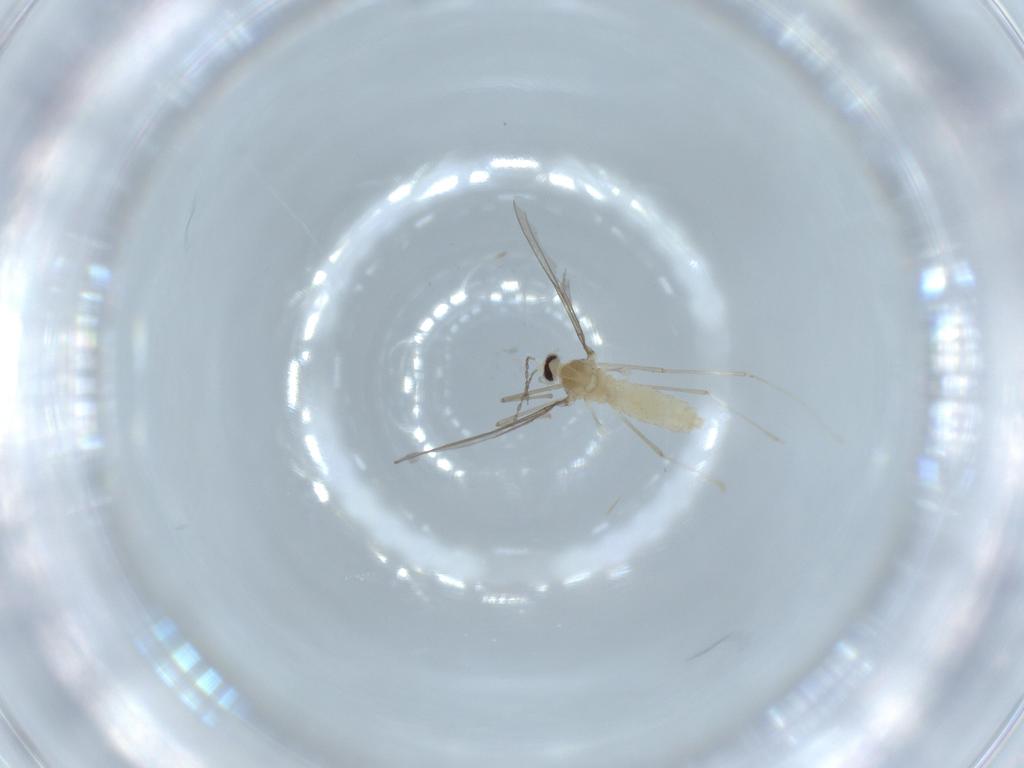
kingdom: Animalia
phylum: Arthropoda
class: Insecta
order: Diptera
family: Cecidomyiidae
